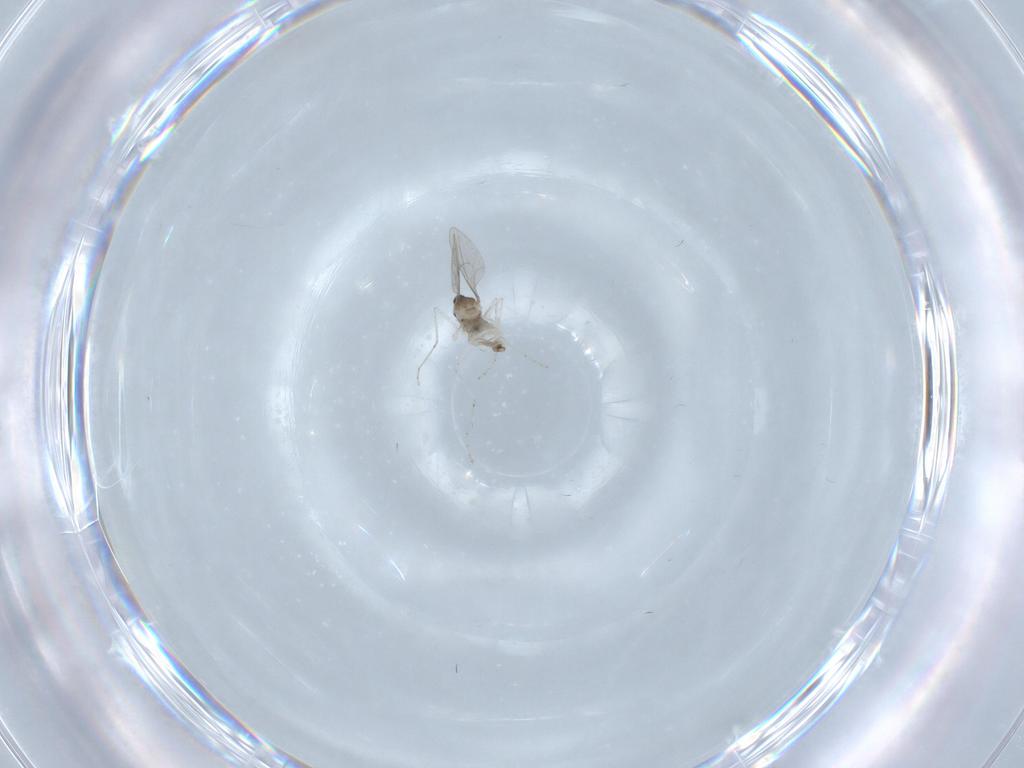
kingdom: Animalia
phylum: Arthropoda
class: Insecta
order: Diptera
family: Cecidomyiidae
